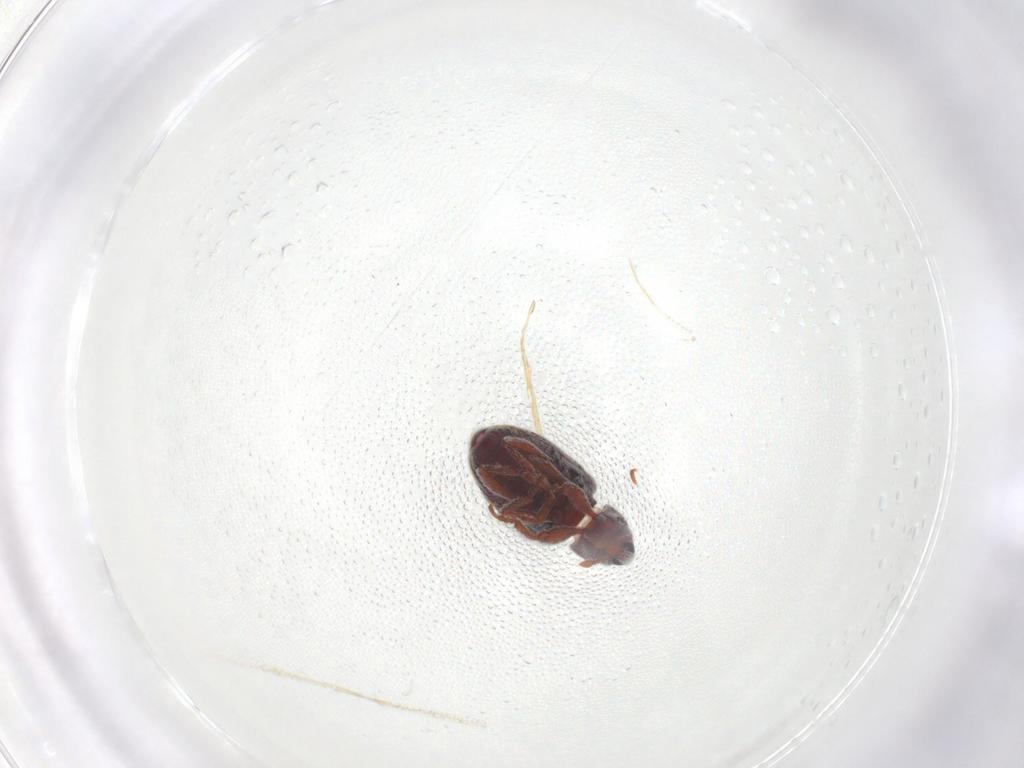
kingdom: Animalia
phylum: Arthropoda
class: Insecta
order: Coleoptera
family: Curculionidae
